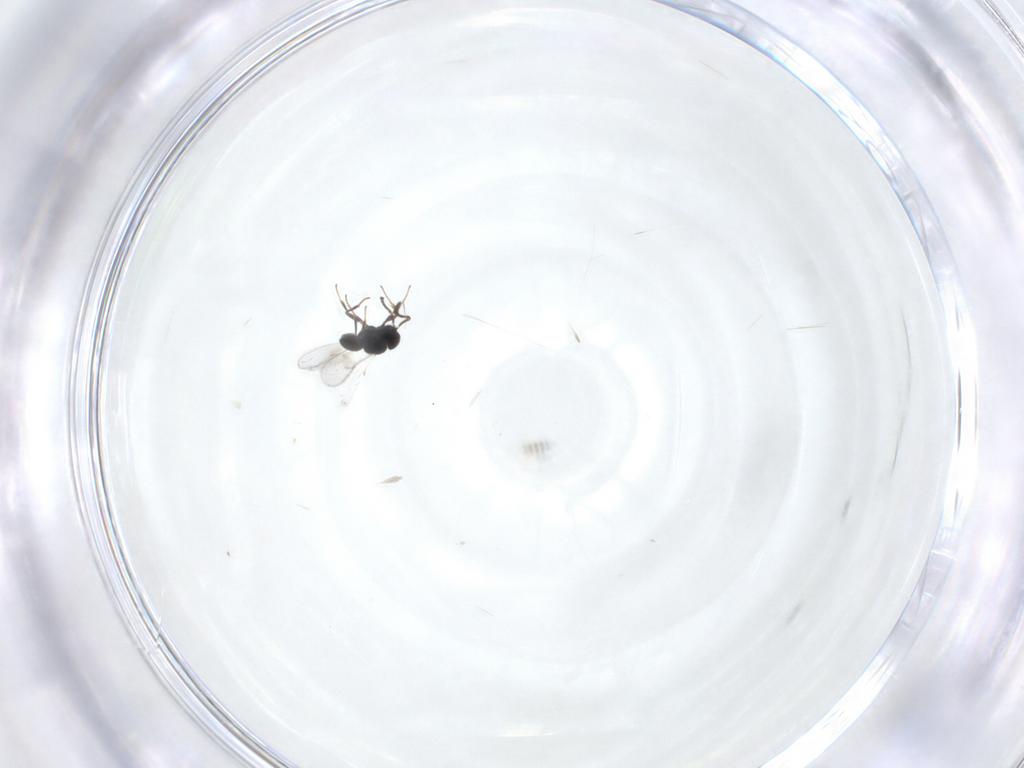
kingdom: Animalia
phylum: Arthropoda
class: Insecta
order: Hymenoptera
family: Scelionidae
